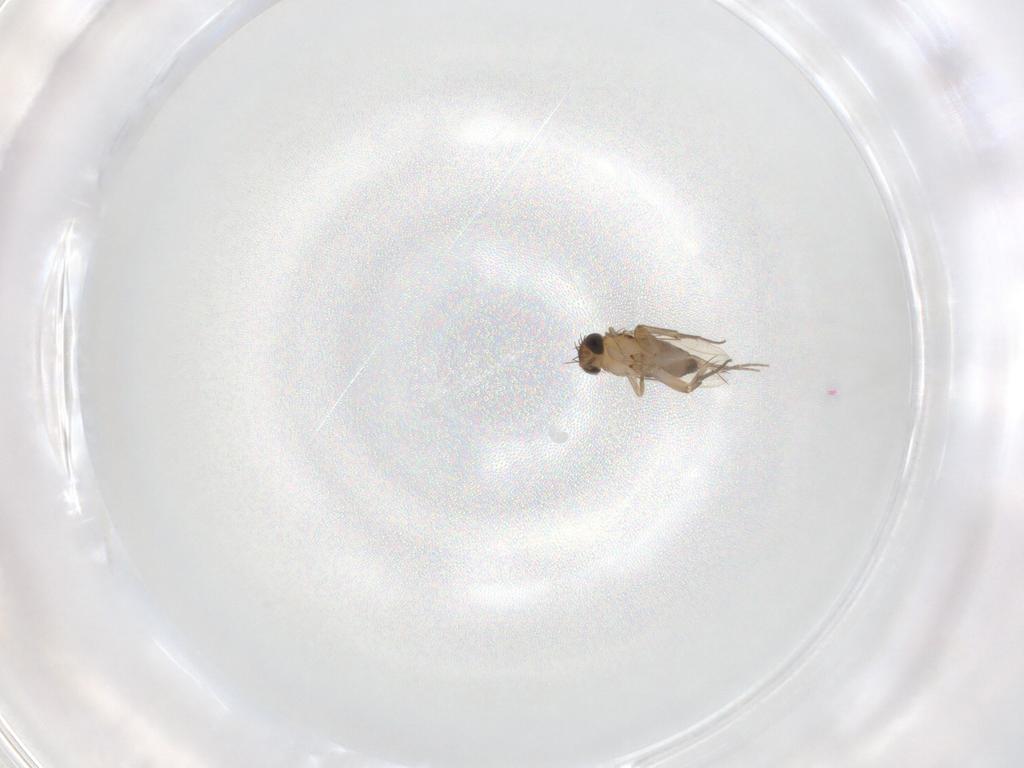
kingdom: Animalia
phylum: Arthropoda
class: Insecta
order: Diptera
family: Phoridae
